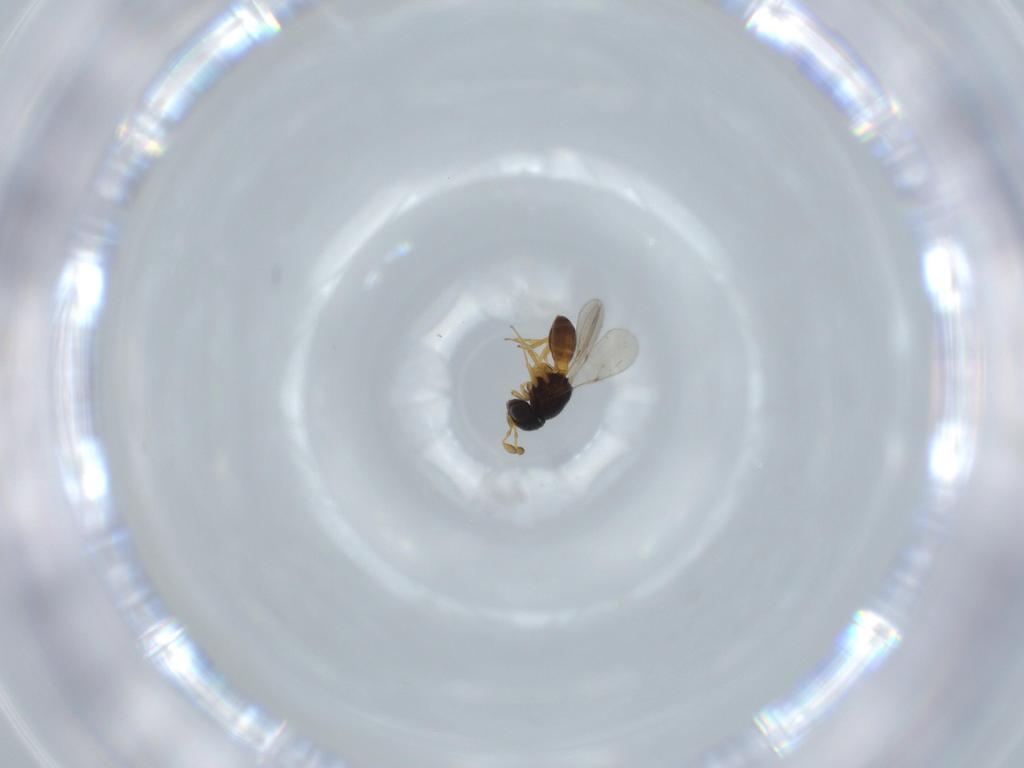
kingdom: Animalia
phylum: Arthropoda
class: Insecta
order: Hymenoptera
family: Scelionidae
